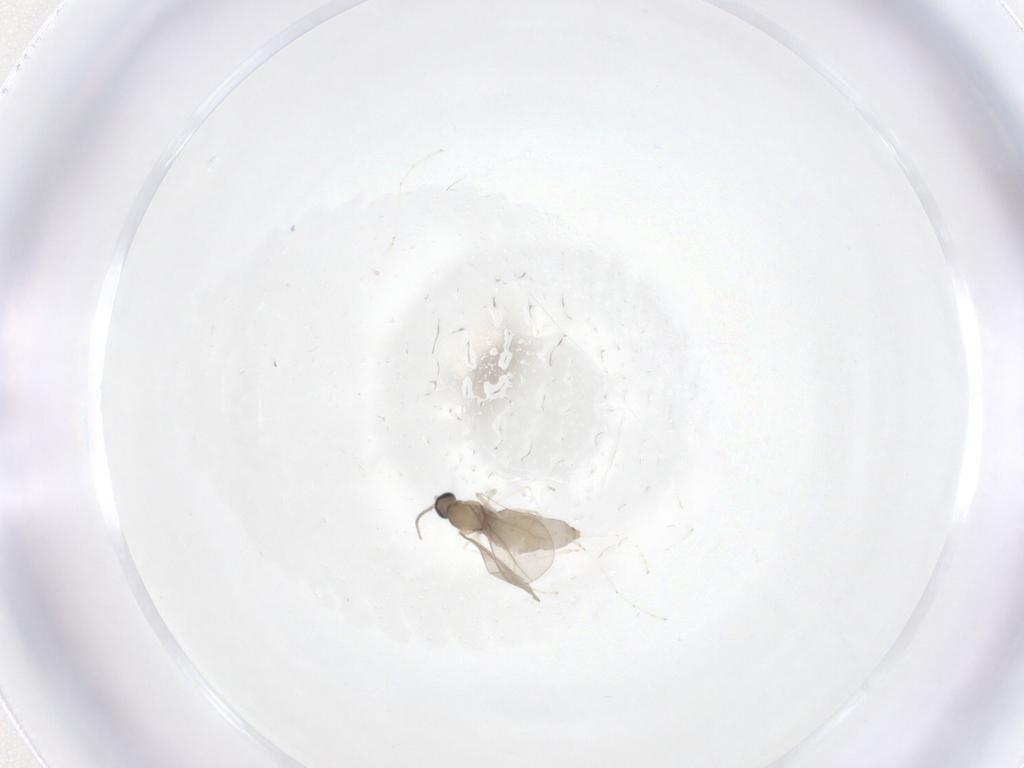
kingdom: Animalia
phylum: Arthropoda
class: Insecta
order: Diptera
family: Cecidomyiidae
